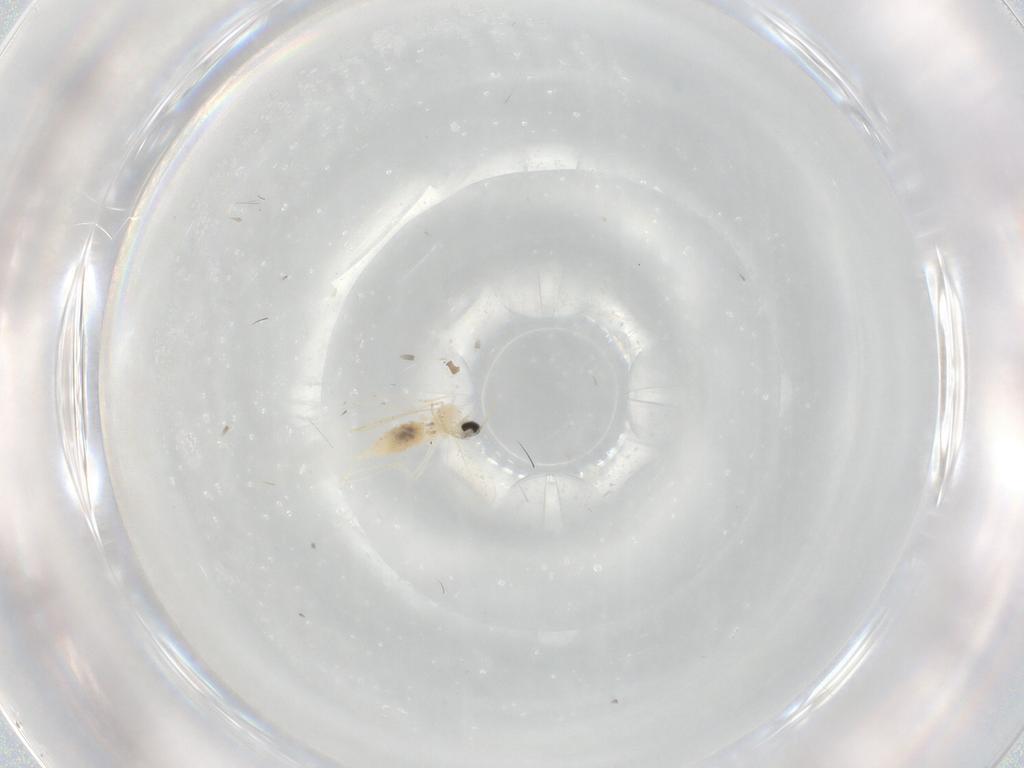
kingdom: Animalia
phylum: Arthropoda
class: Insecta
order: Diptera
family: Cecidomyiidae
